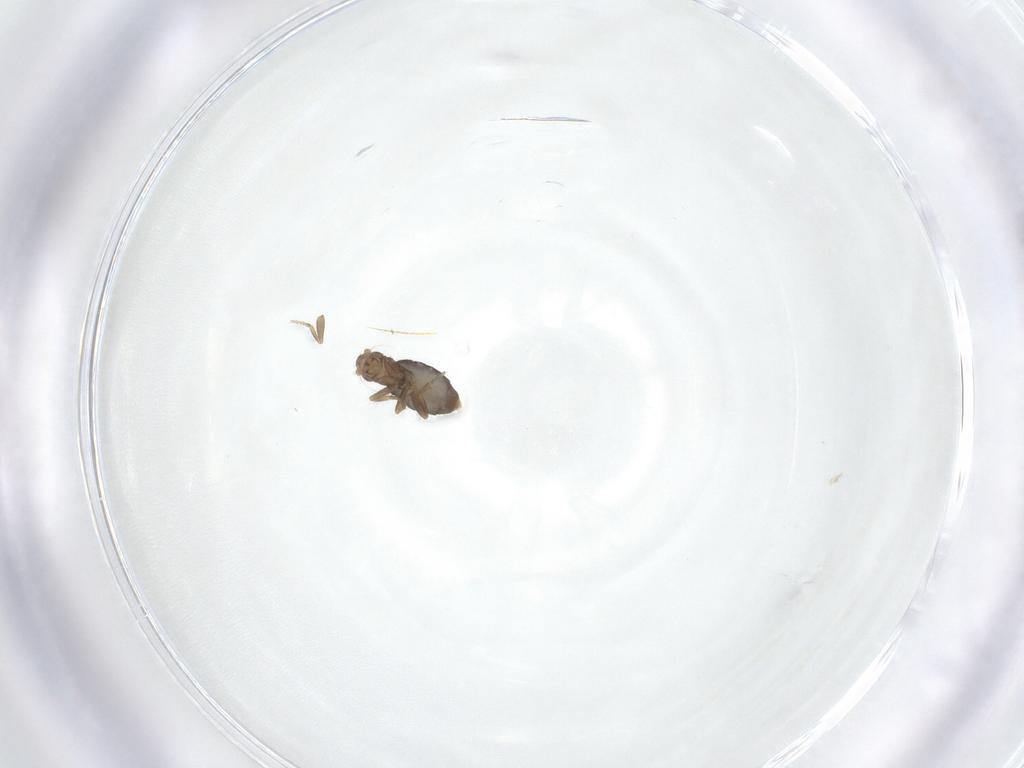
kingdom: Animalia
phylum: Arthropoda
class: Insecta
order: Diptera
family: Phoridae
